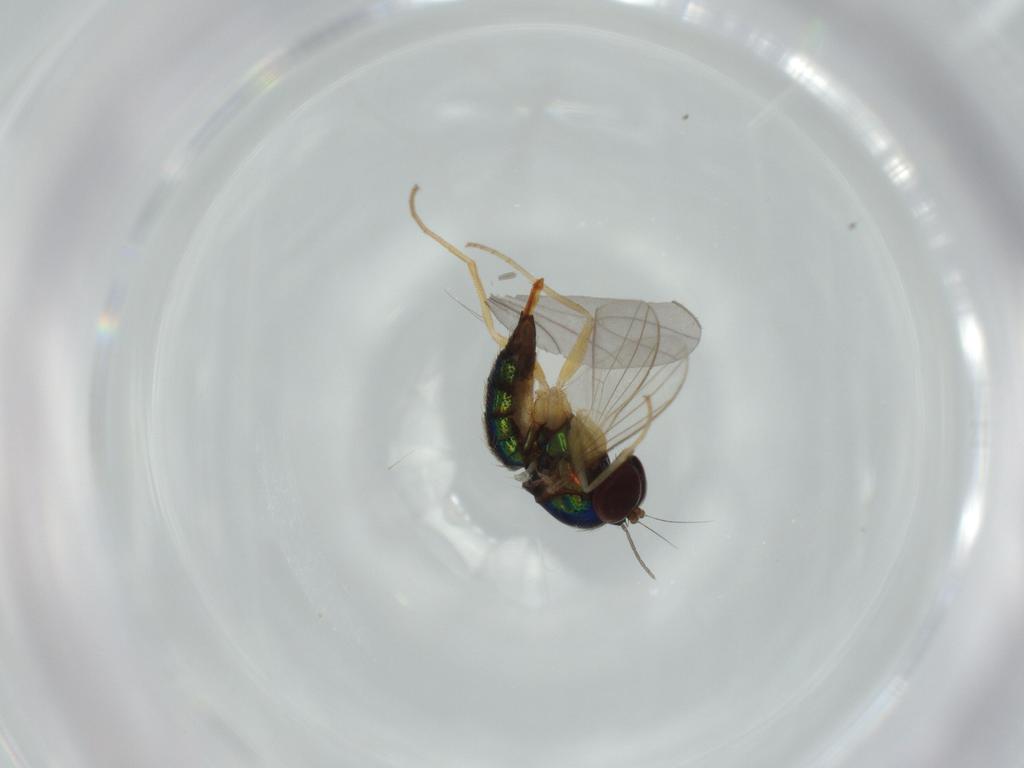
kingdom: Animalia
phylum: Arthropoda
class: Insecta
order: Diptera
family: Dolichopodidae
